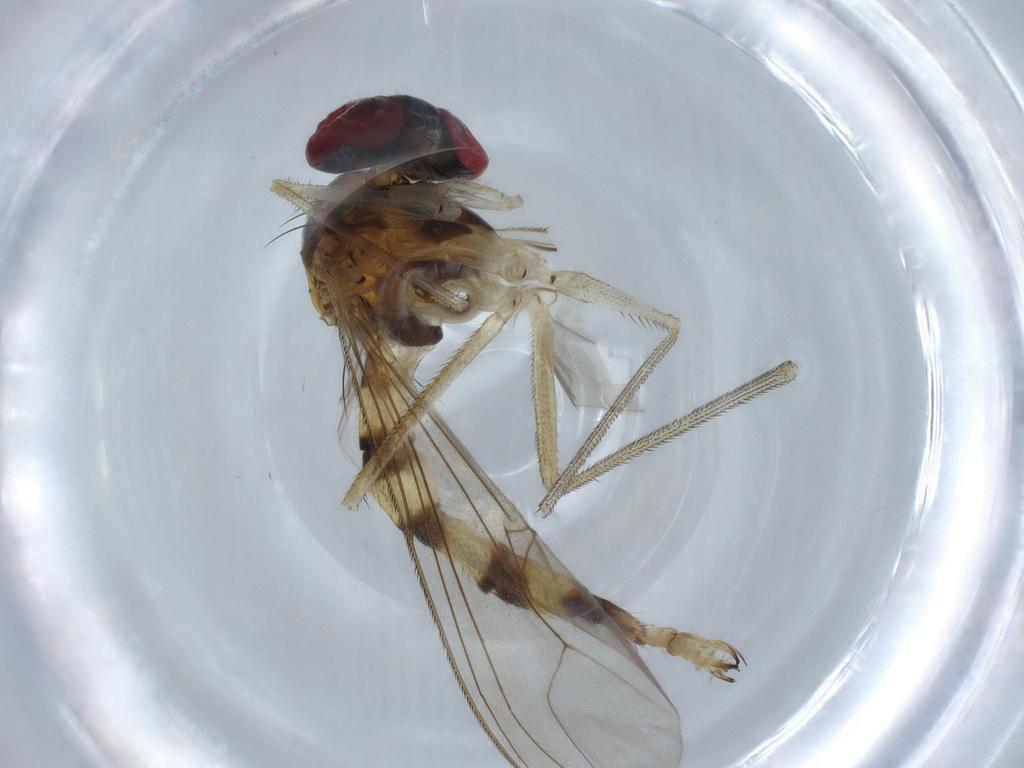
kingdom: Animalia
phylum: Arthropoda
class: Insecta
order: Diptera
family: Dolichopodidae
